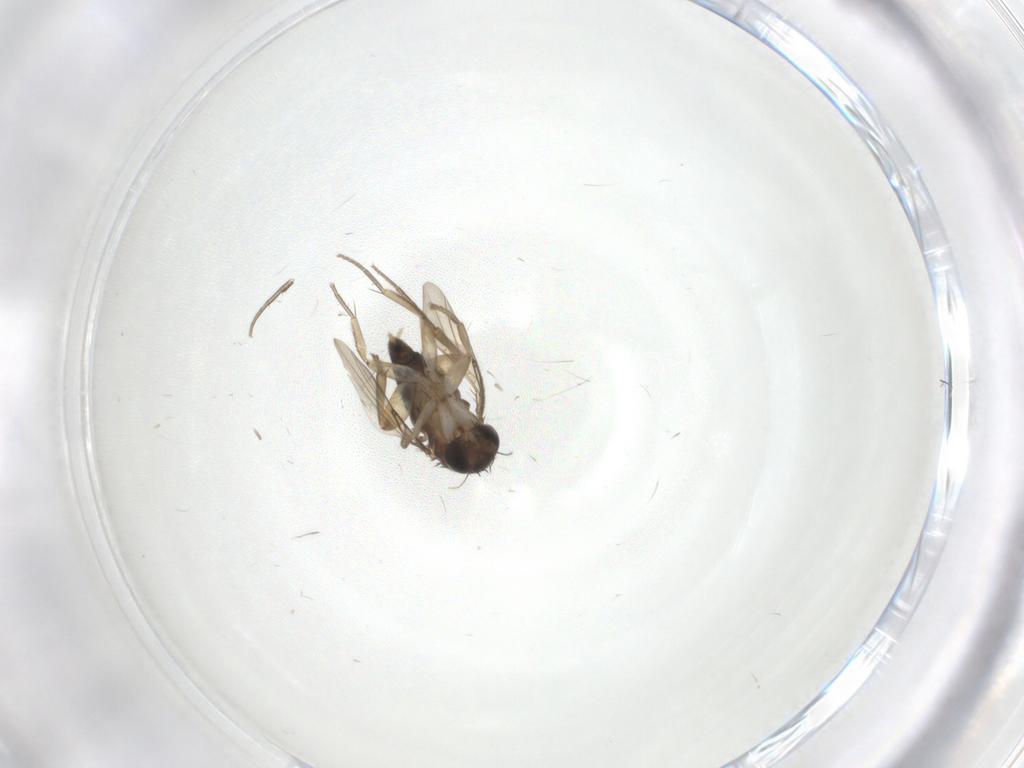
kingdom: Animalia
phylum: Arthropoda
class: Insecta
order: Diptera
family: Phoridae
